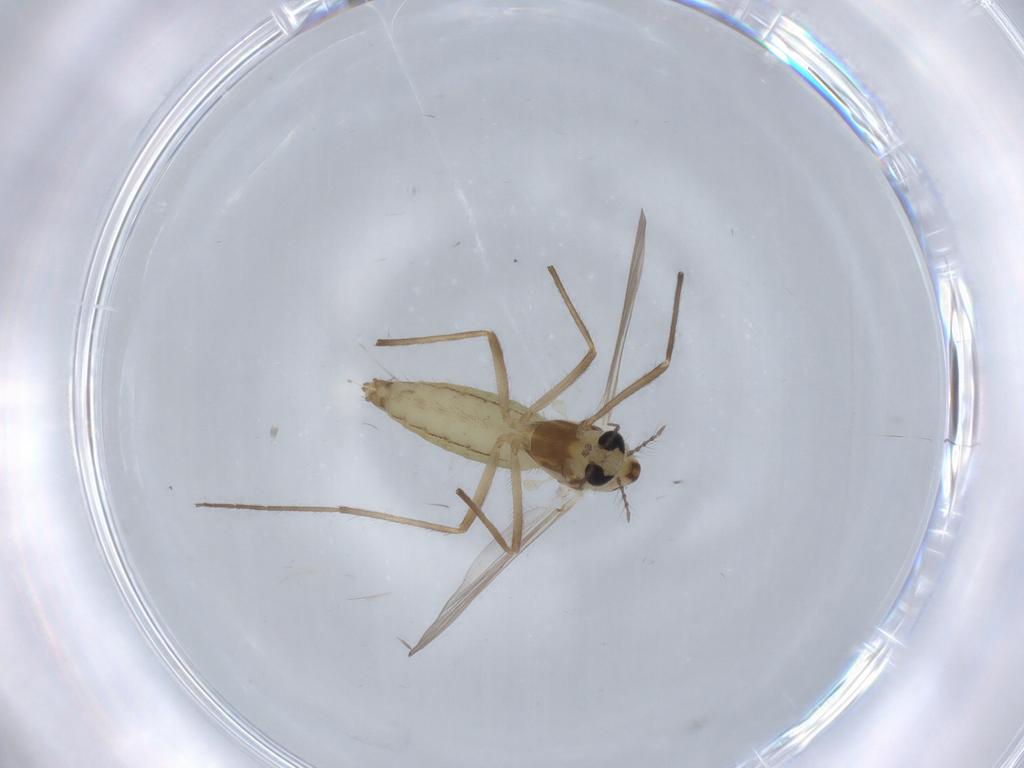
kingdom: Animalia
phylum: Arthropoda
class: Insecta
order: Diptera
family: Chironomidae
